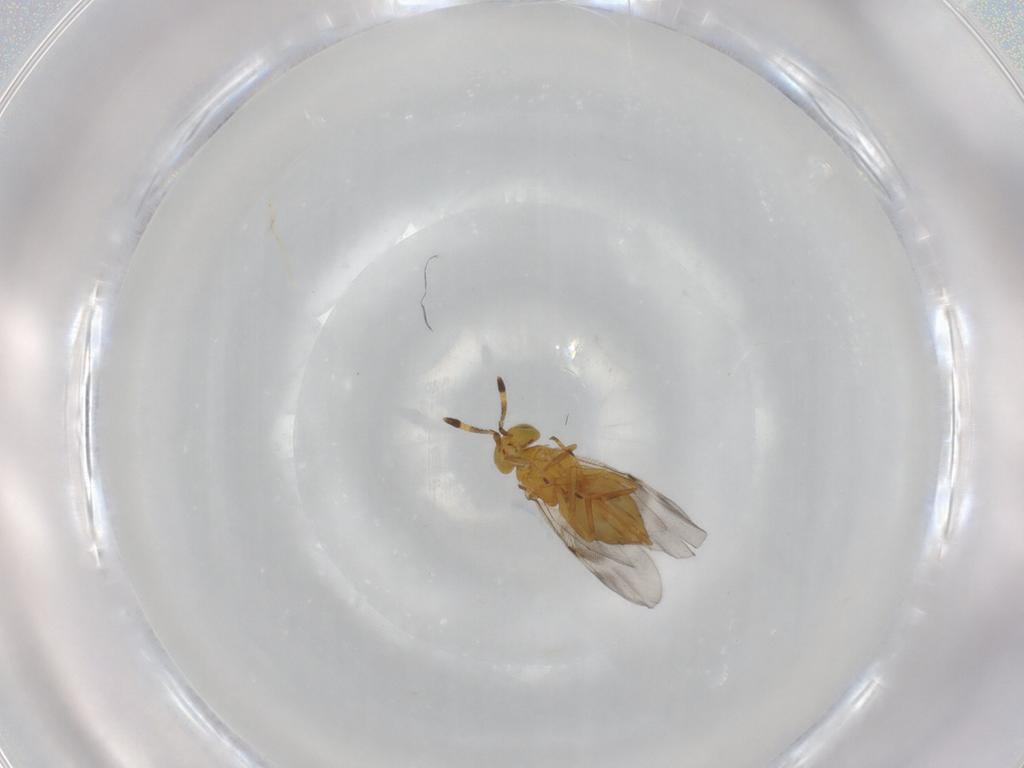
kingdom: Animalia
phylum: Arthropoda
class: Insecta
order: Hymenoptera
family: Encyrtidae
